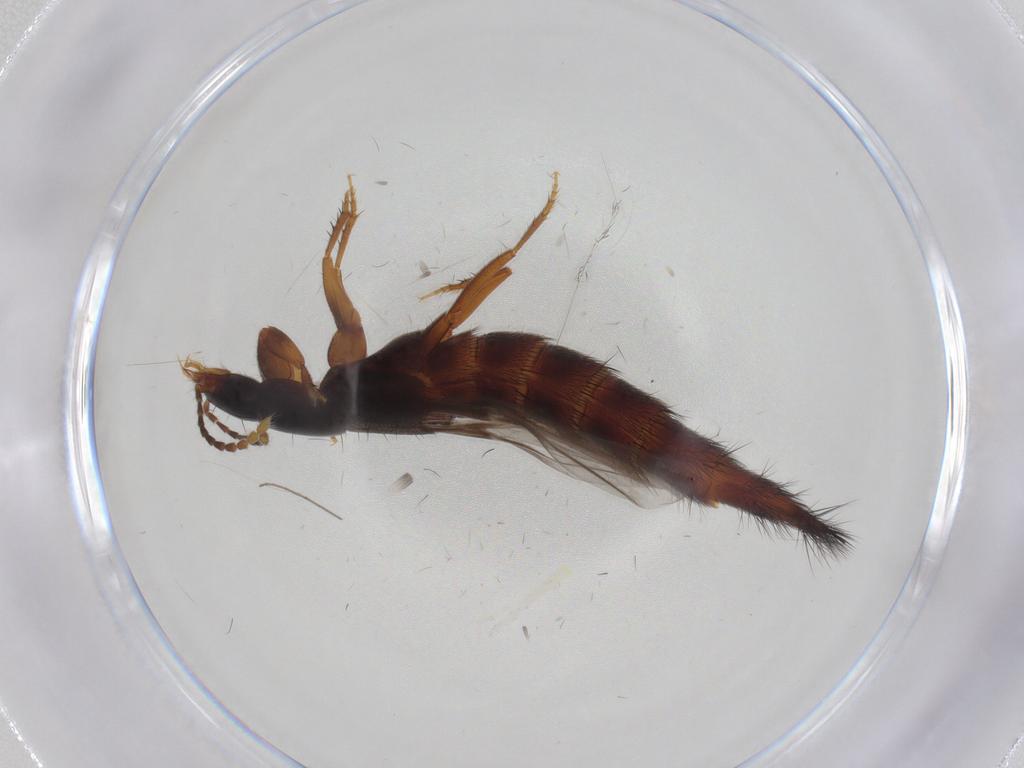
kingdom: Animalia
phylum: Arthropoda
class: Insecta
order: Coleoptera
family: Staphylinidae
